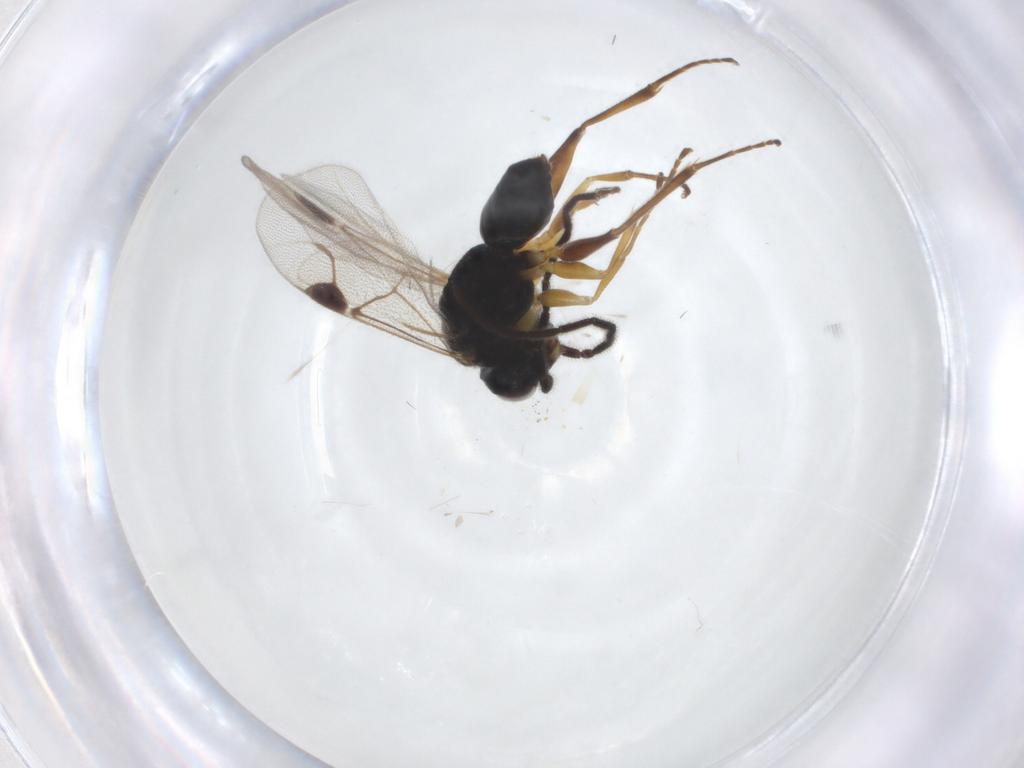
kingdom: Animalia
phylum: Arthropoda
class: Insecta
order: Hymenoptera
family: Dryinidae
